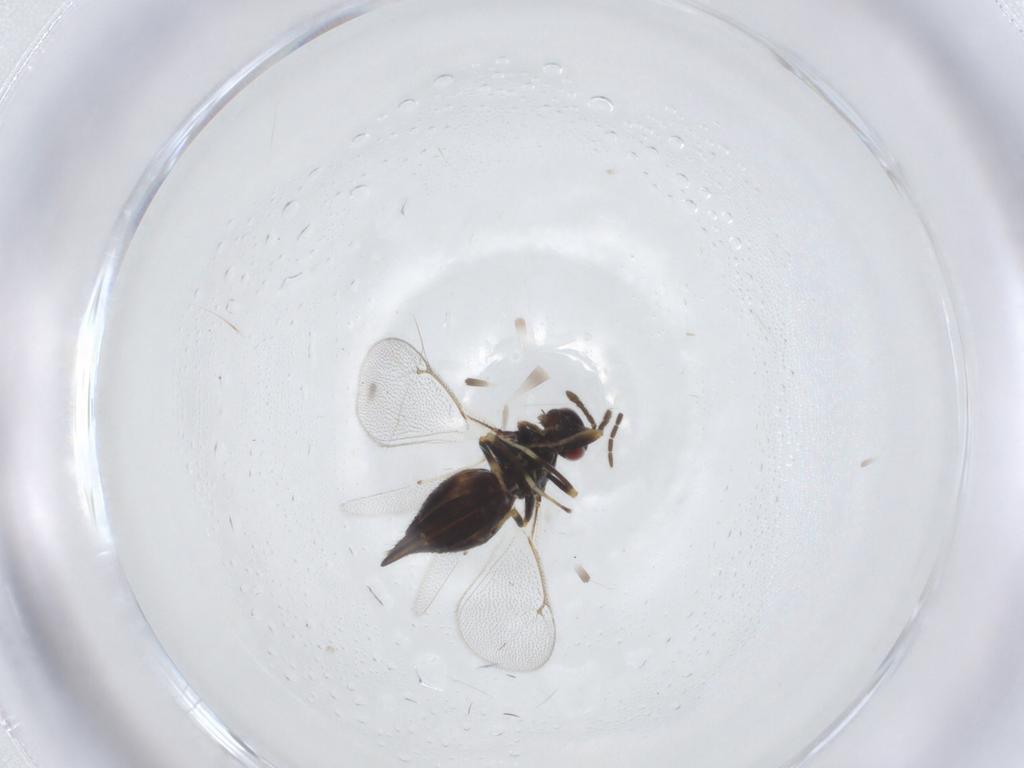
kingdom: Animalia
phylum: Arthropoda
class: Insecta
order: Hymenoptera
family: Eulophidae
